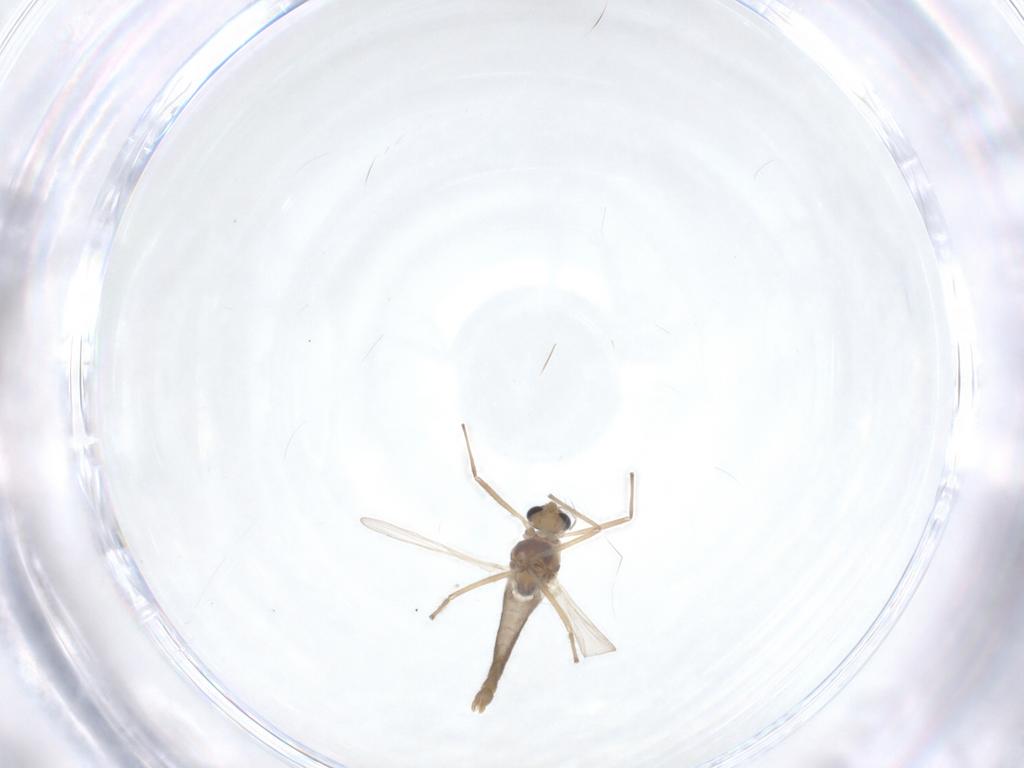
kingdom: Animalia
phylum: Arthropoda
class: Insecta
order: Diptera
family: Chironomidae
